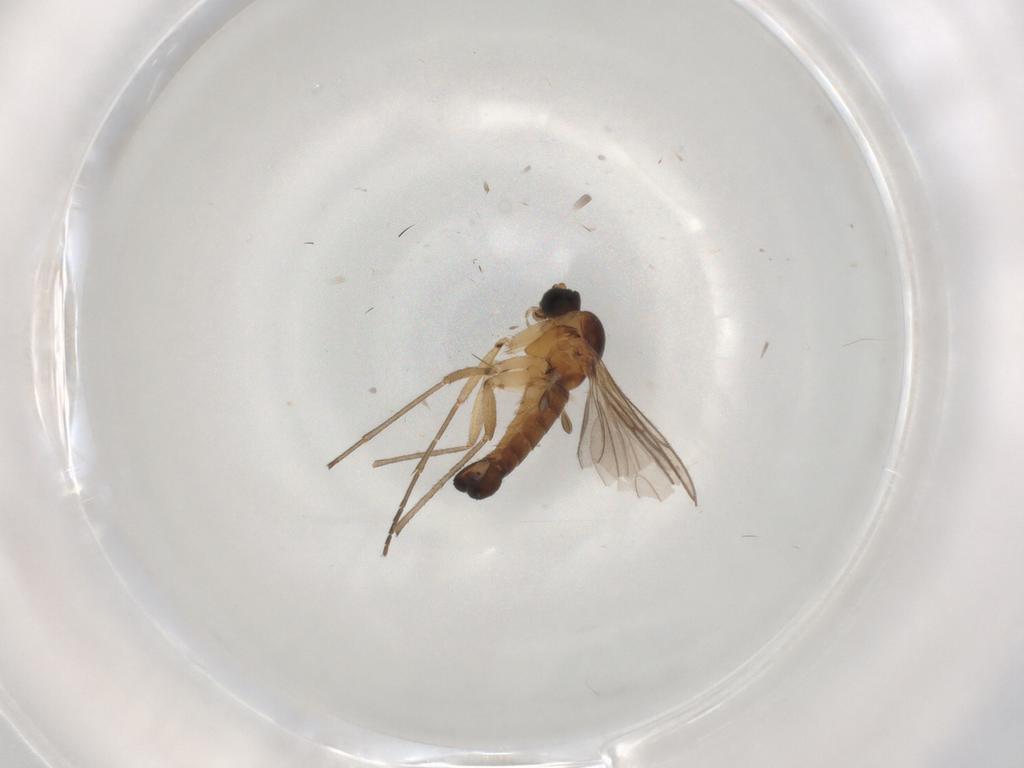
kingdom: Animalia
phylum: Arthropoda
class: Insecta
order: Diptera
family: Sciaridae
